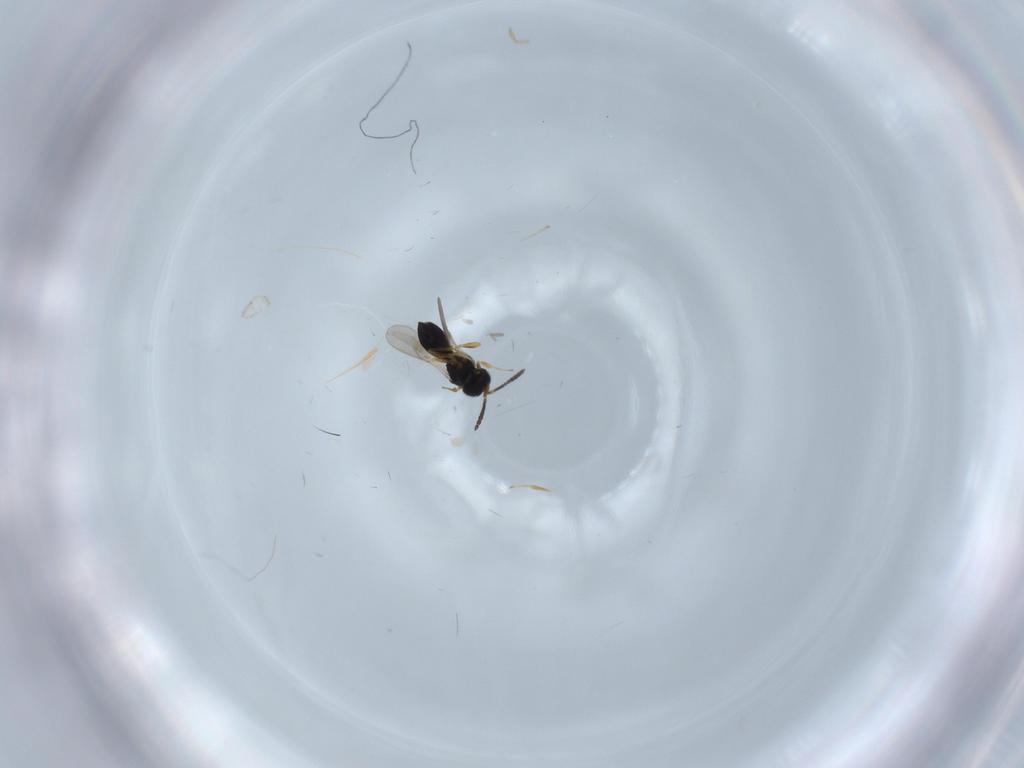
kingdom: Animalia
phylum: Arthropoda
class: Insecta
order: Hymenoptera
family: Scelionidae
